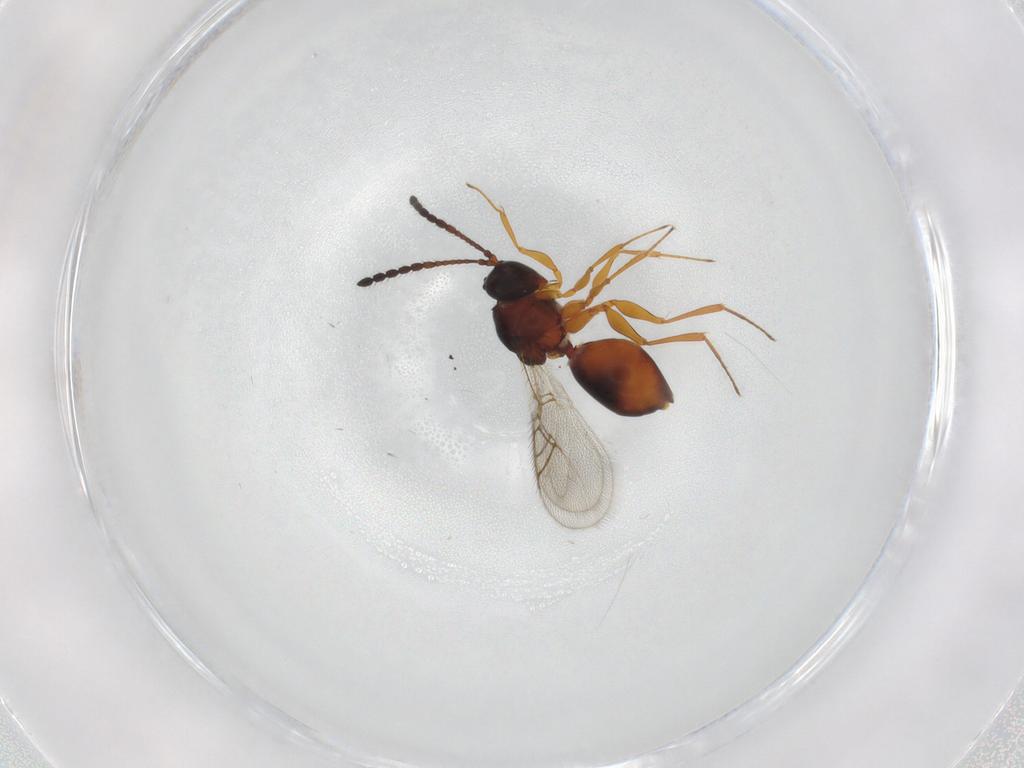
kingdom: Animalia
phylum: Arthropoda
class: Insecta
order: Hymenoptera
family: Figitidae
